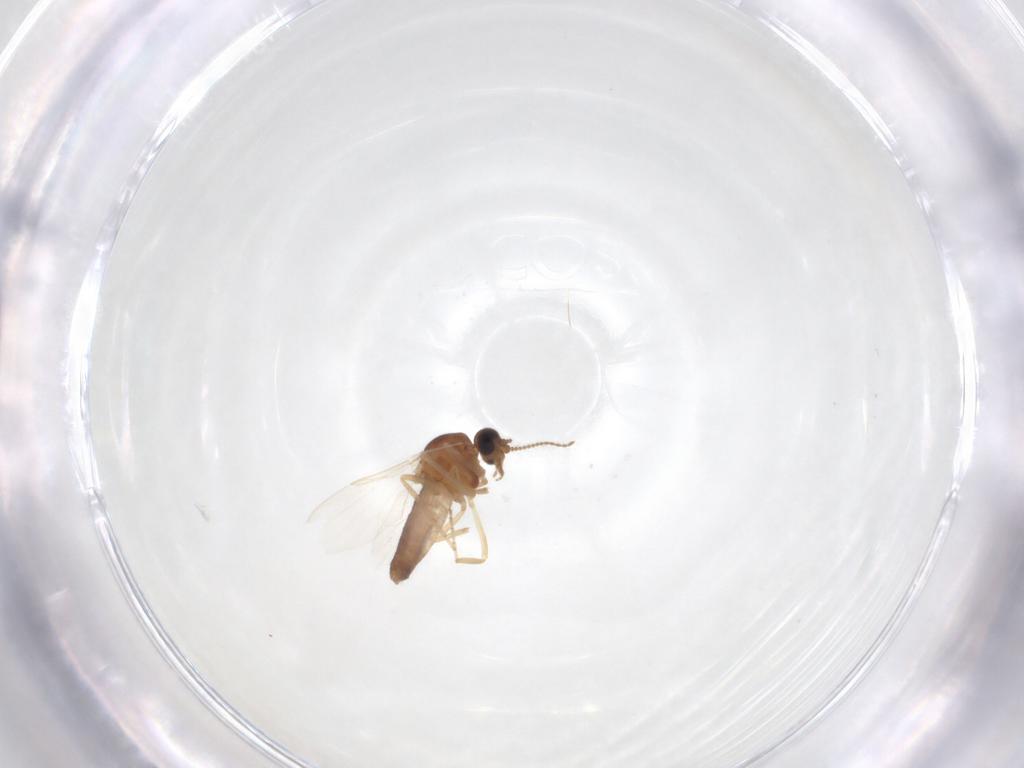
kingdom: Animalia
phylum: Arthropoda
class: Insecta
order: Diptera
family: Ceratopogonidae
